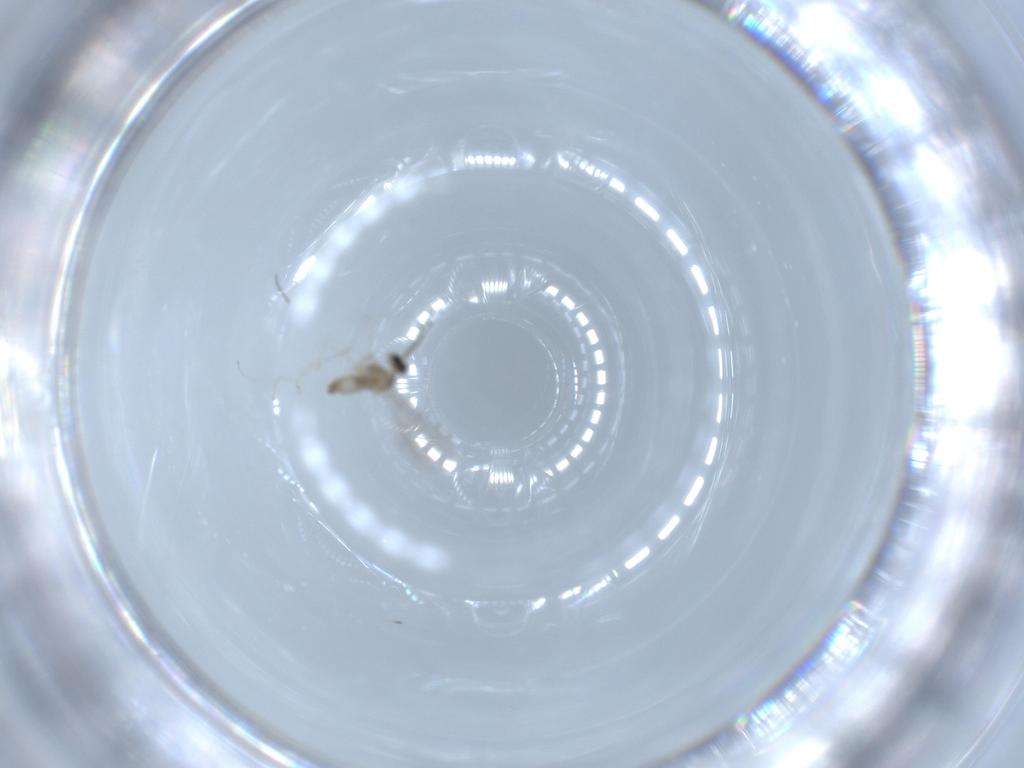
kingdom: Animalia
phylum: Arthropoda
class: Insecta
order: Diptera
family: Cecidomyiidae
